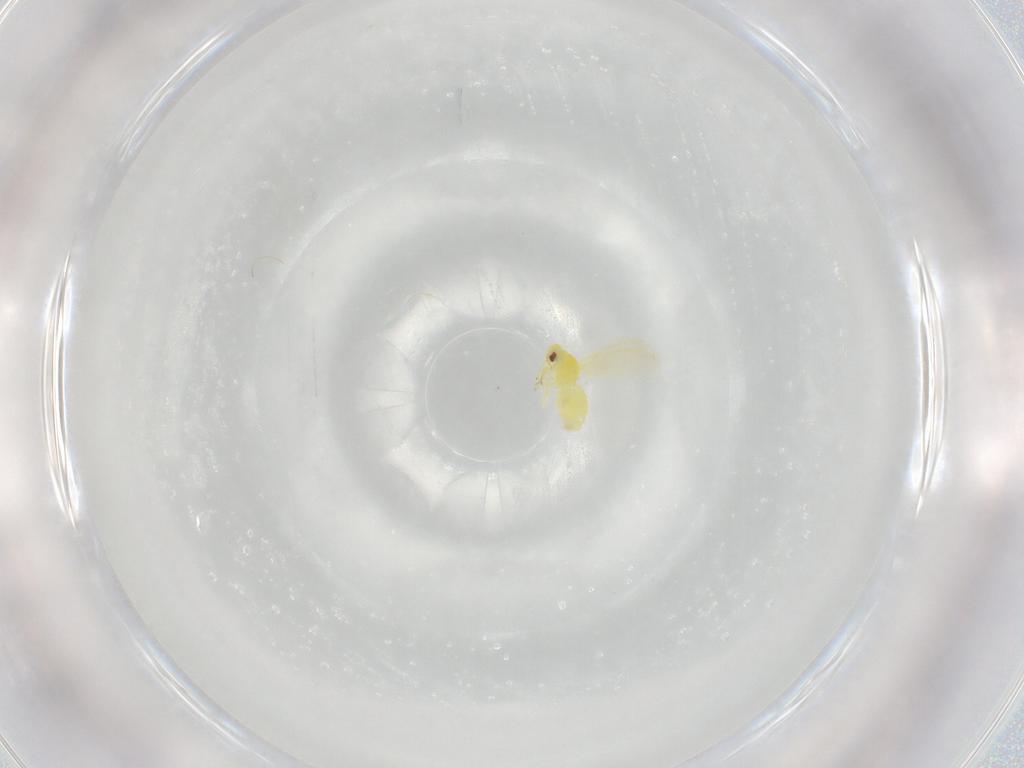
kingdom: Animalia
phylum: Arthropoda
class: Insecta
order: Hemiptera
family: Aleyrodidae
